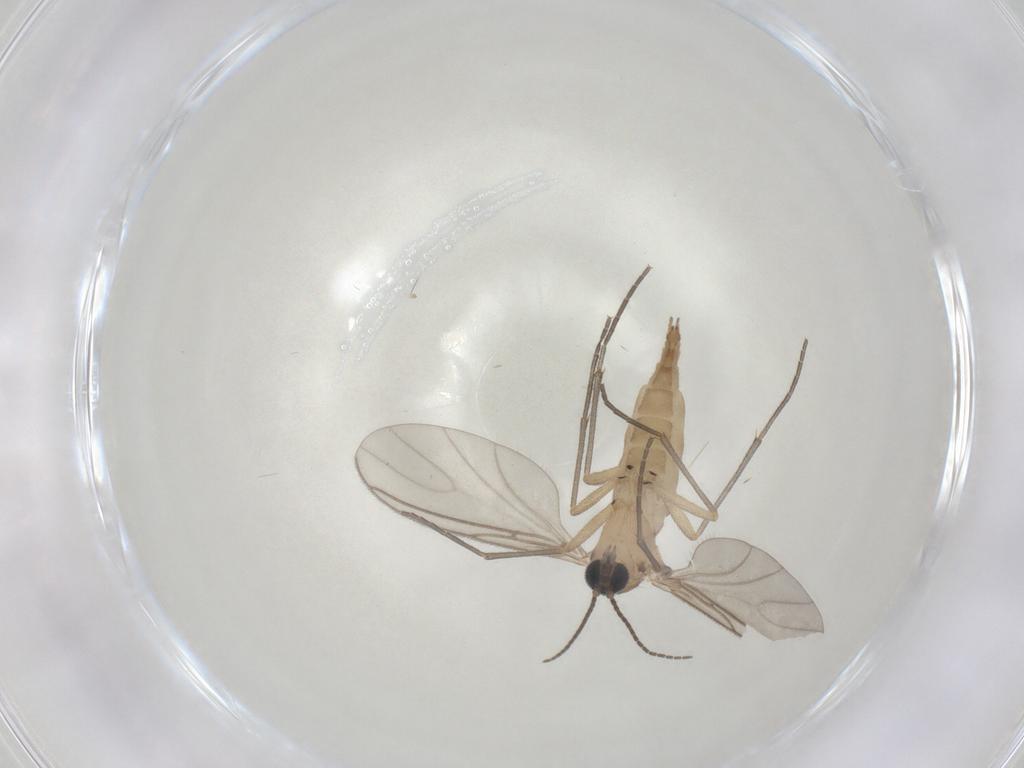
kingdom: Animalia
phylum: Arthropoda
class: Insecta
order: Diptera
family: Sciaridae
